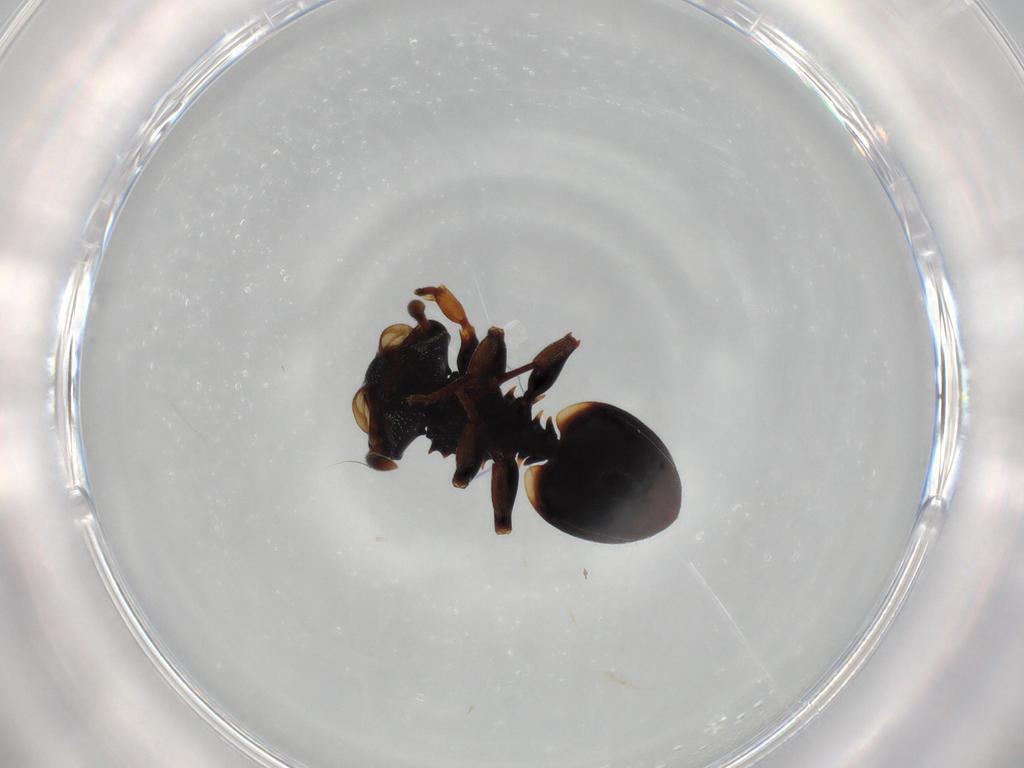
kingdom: Animalia
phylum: Arthropoda
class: Insecta
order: Hymenoptera
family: Formicidae
